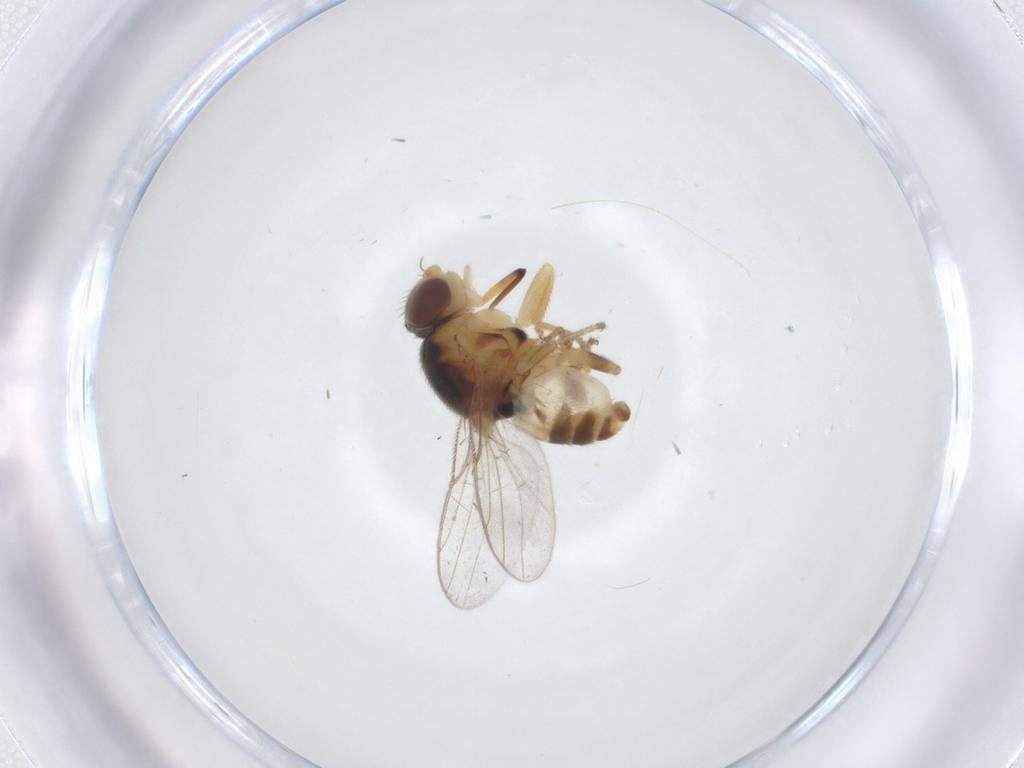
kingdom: Animalia
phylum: Arthropoda
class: Insecta
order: Diptera
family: Chloropidae
